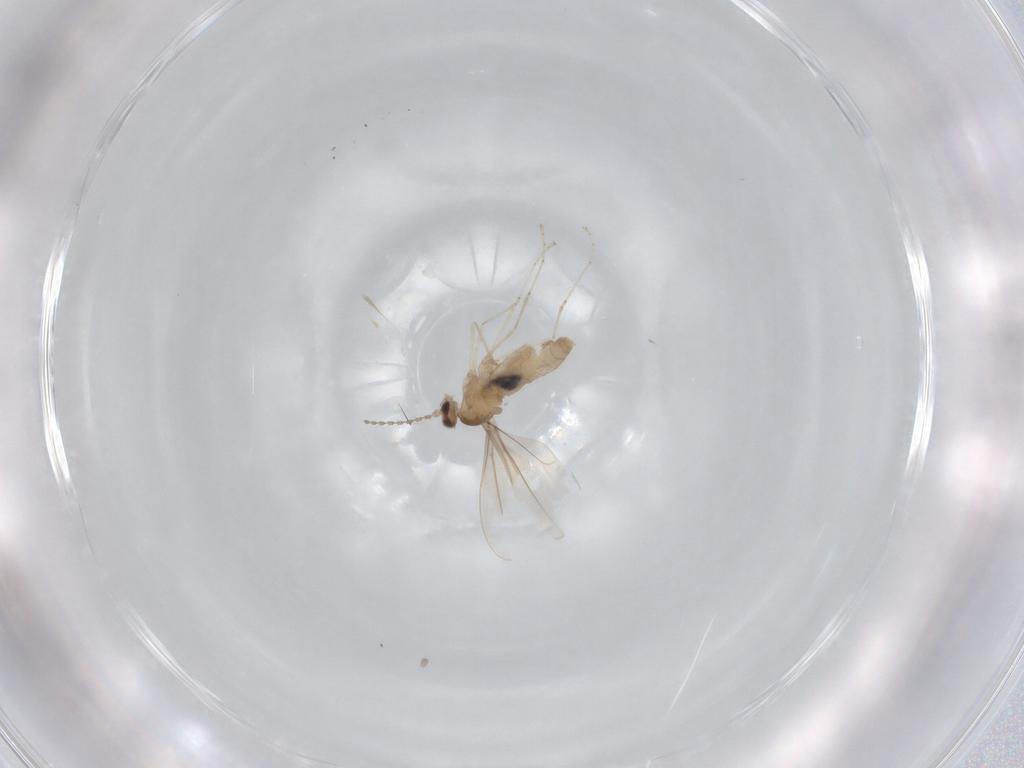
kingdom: Animalia
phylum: Arthropoda
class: Insecta
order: Diptera
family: Cecidomyiidae
